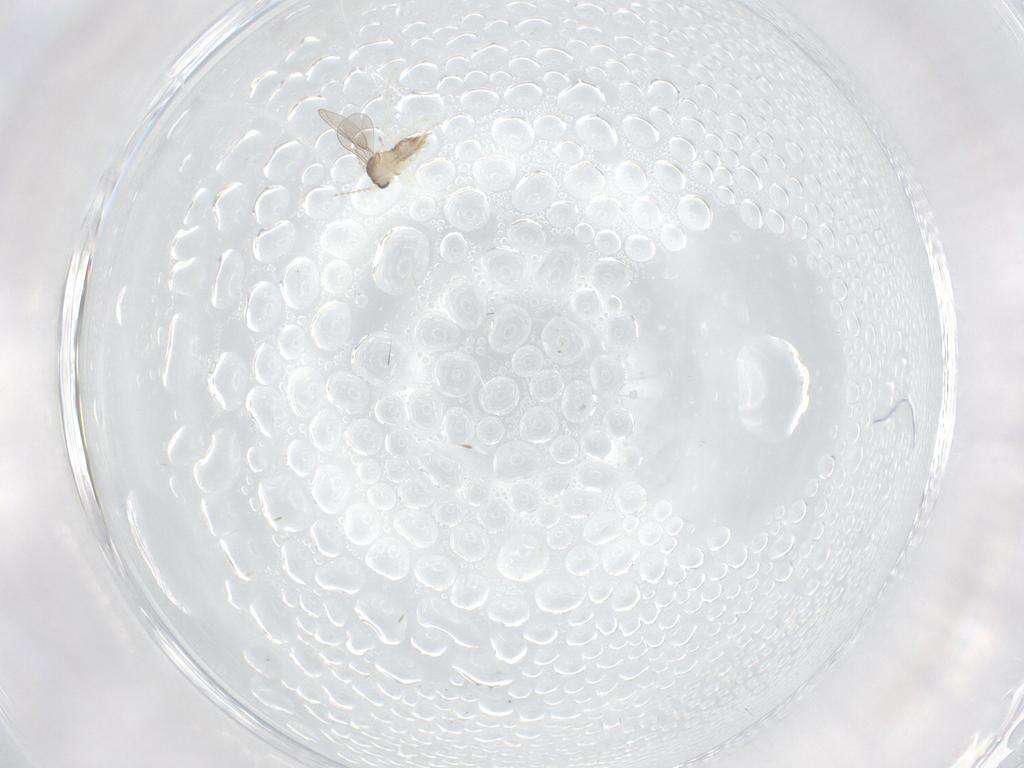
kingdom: Animalia
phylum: Arthropoda
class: Insecta
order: Diptera
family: Cecidomyiidae
